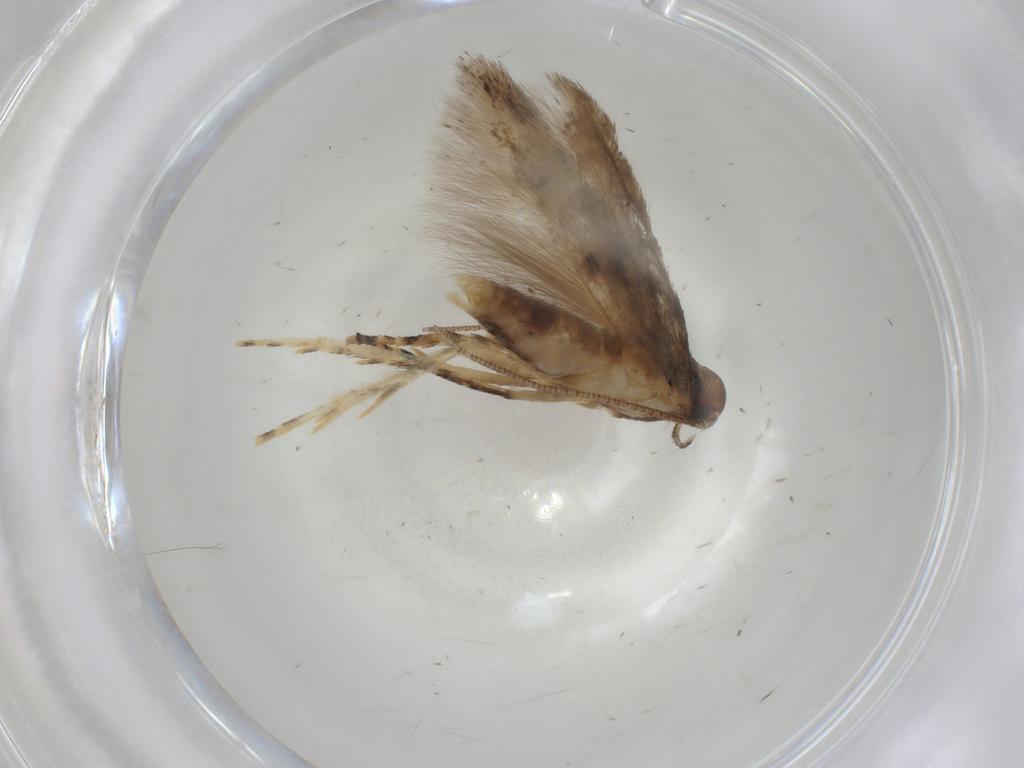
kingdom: Animalia
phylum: Arthropoda
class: Insecta
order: Lepidoptera
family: Gelechiidae
